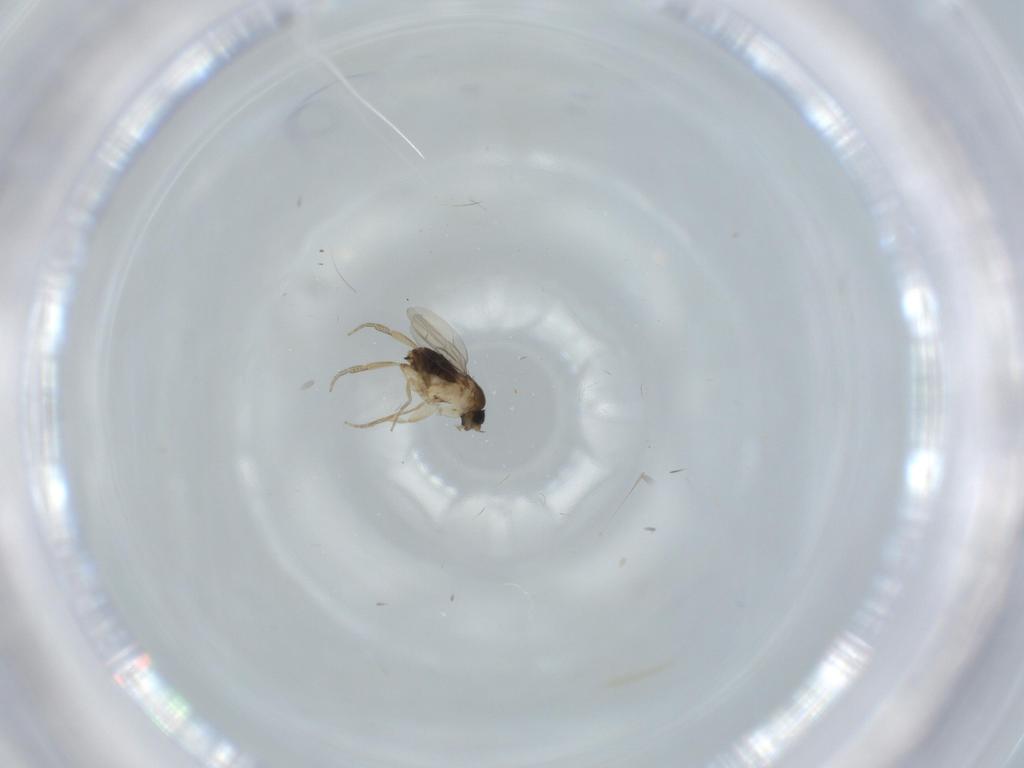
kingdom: Animalia
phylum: Arthropoda
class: Insecta
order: Diptera
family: Phoridae
